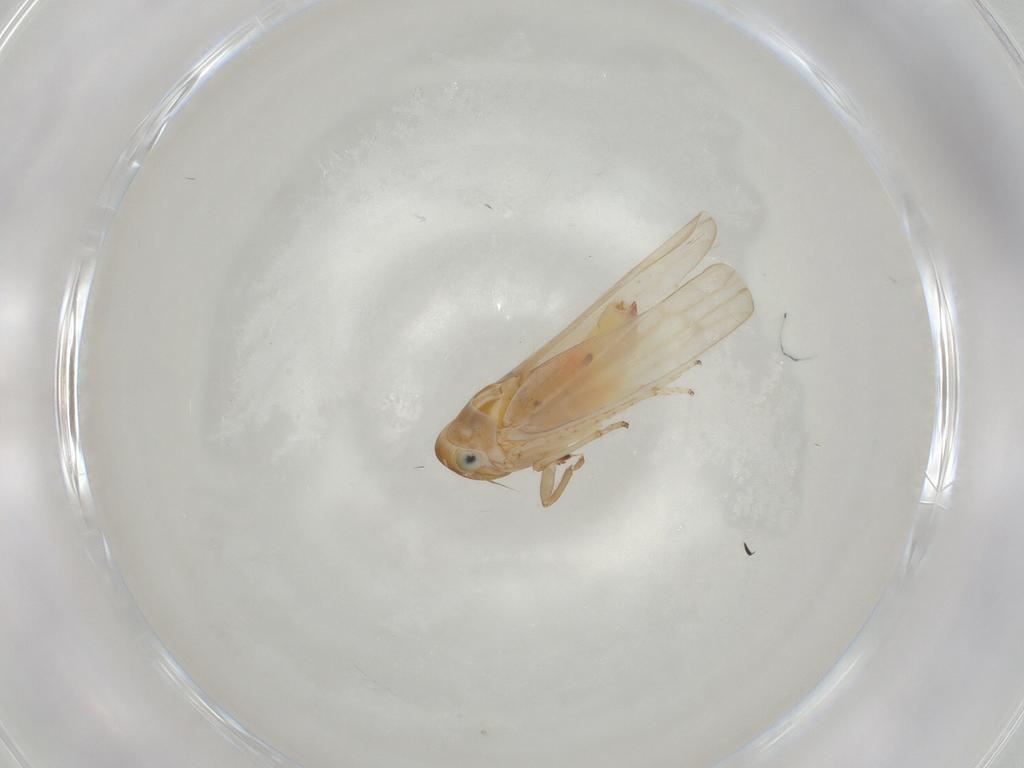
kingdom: Animalia
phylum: Arthropoda
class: Insecta
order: Hemiptera
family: Cicadellidae
